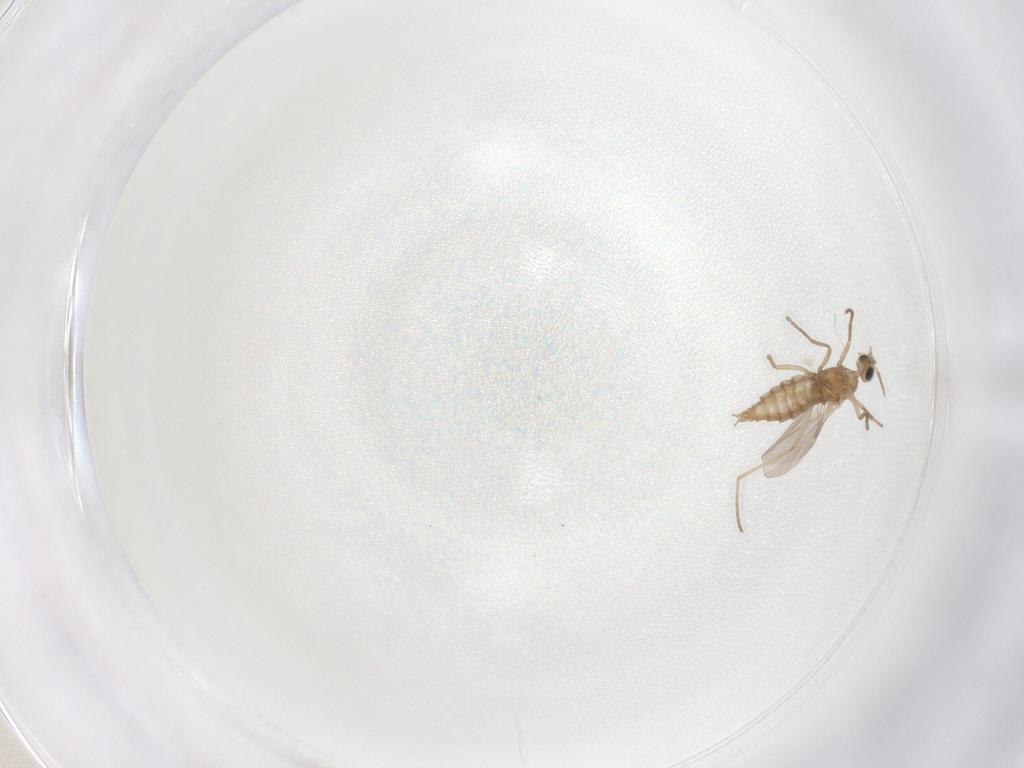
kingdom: Animalia
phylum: Arthropoda
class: Insecta
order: Diptera
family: Cecidomyiidae
